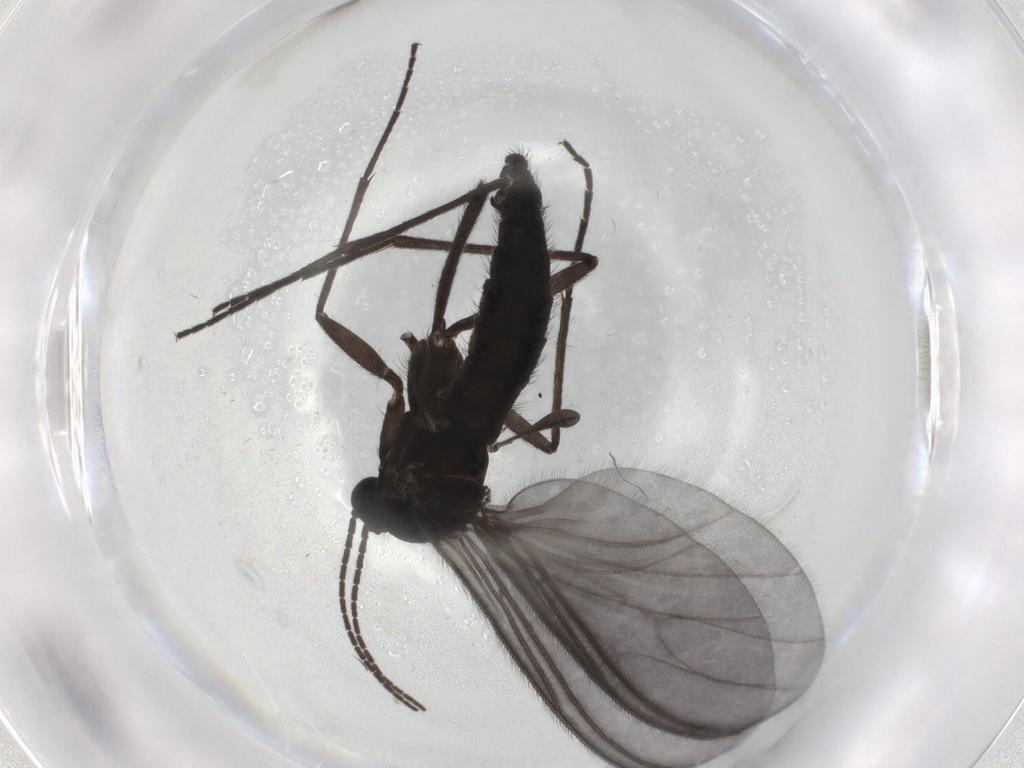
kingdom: Animalia
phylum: Arthropoda
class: Insecta
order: Diptera
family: Sciaridae
